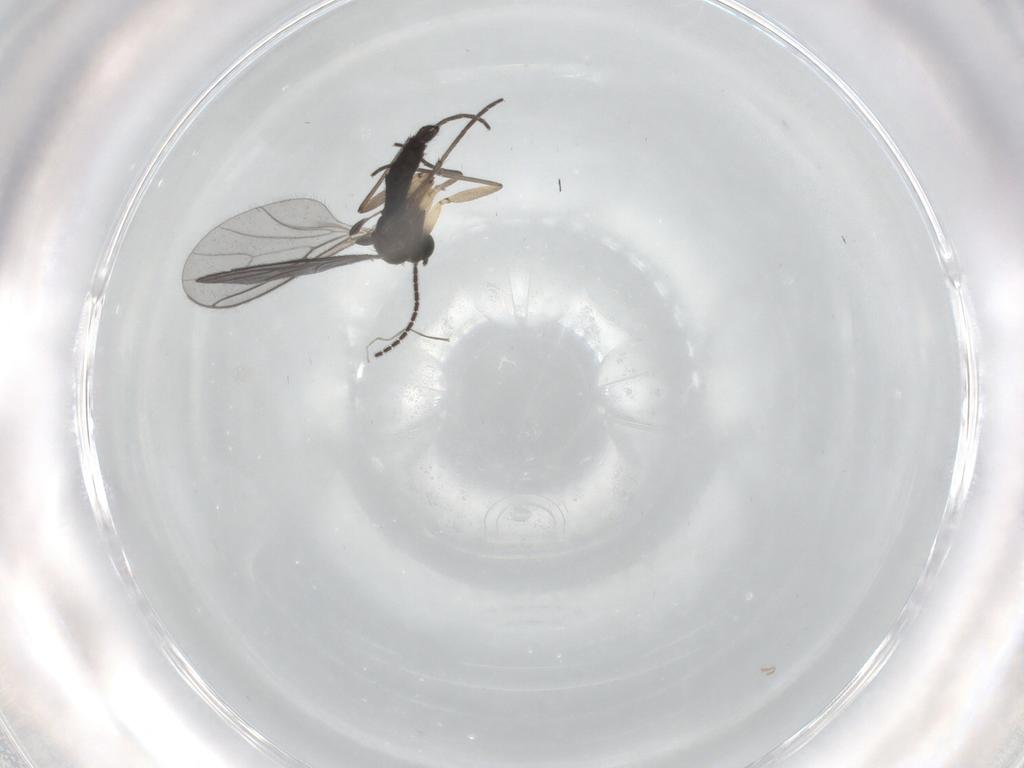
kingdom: Animalia
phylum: Arthropoda
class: Insecta
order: Diptera
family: Sciaridae
